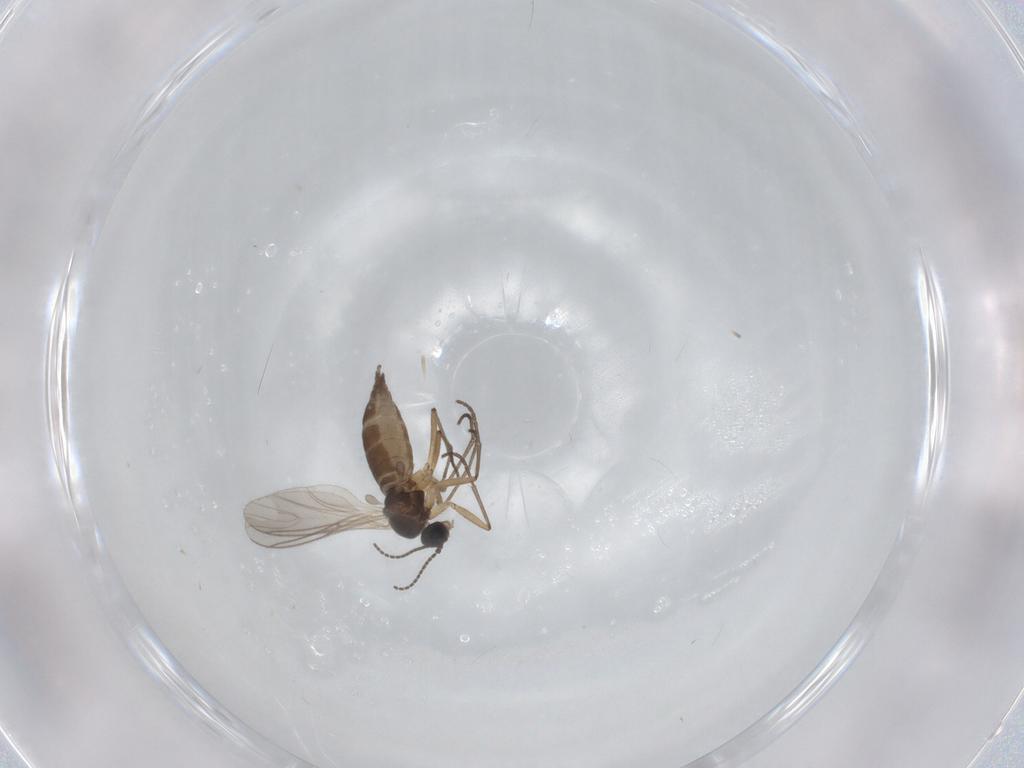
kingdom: Animalia
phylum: Arthropoda
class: Insecta
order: Diptera
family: Sciaridae
